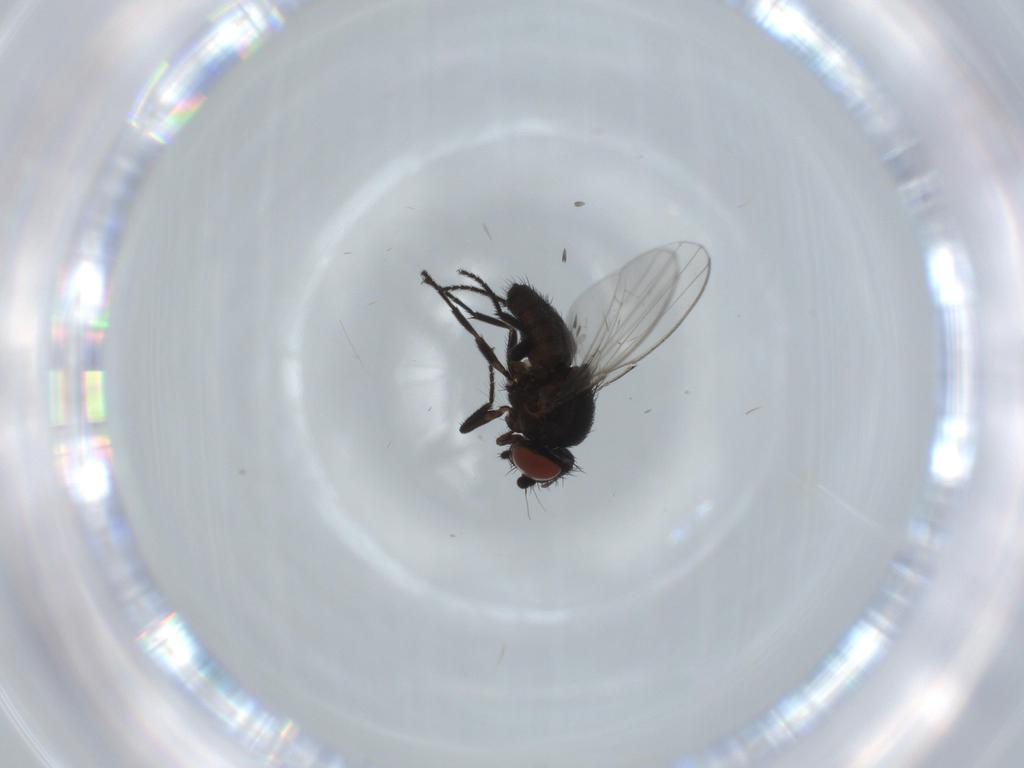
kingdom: Animalia
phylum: Arthropoda
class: Insecta
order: Diptera
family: Milichiidae
